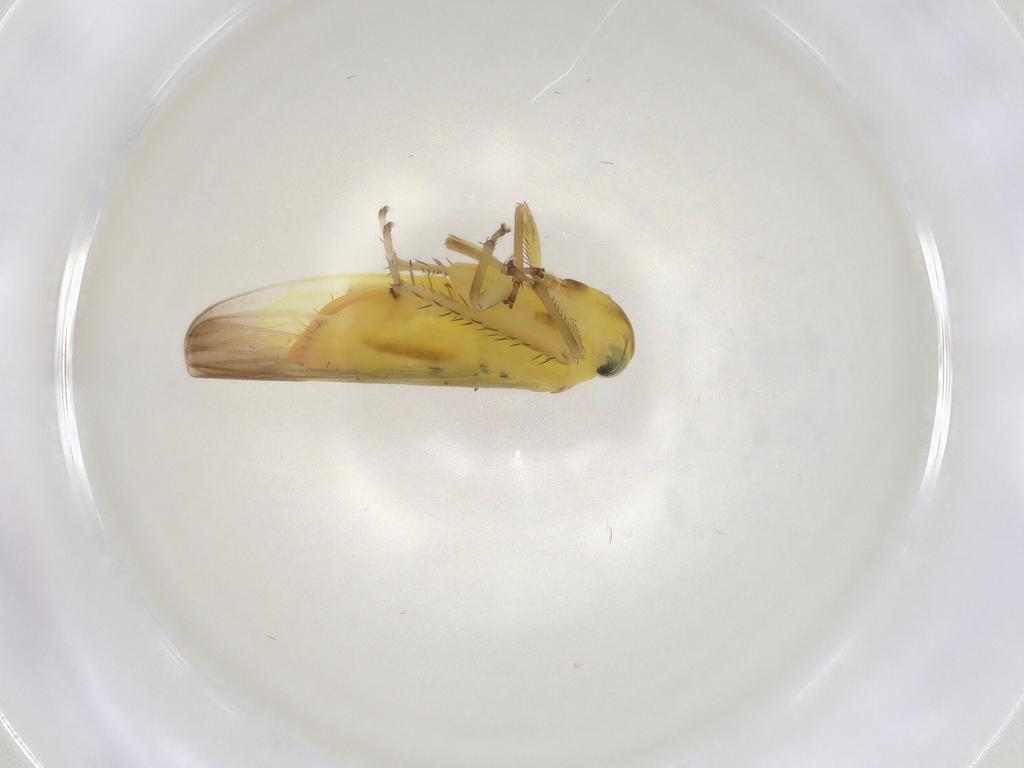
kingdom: Animalia
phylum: Arthropoda
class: Insecta
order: Hemiptera
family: Cicadellidae
